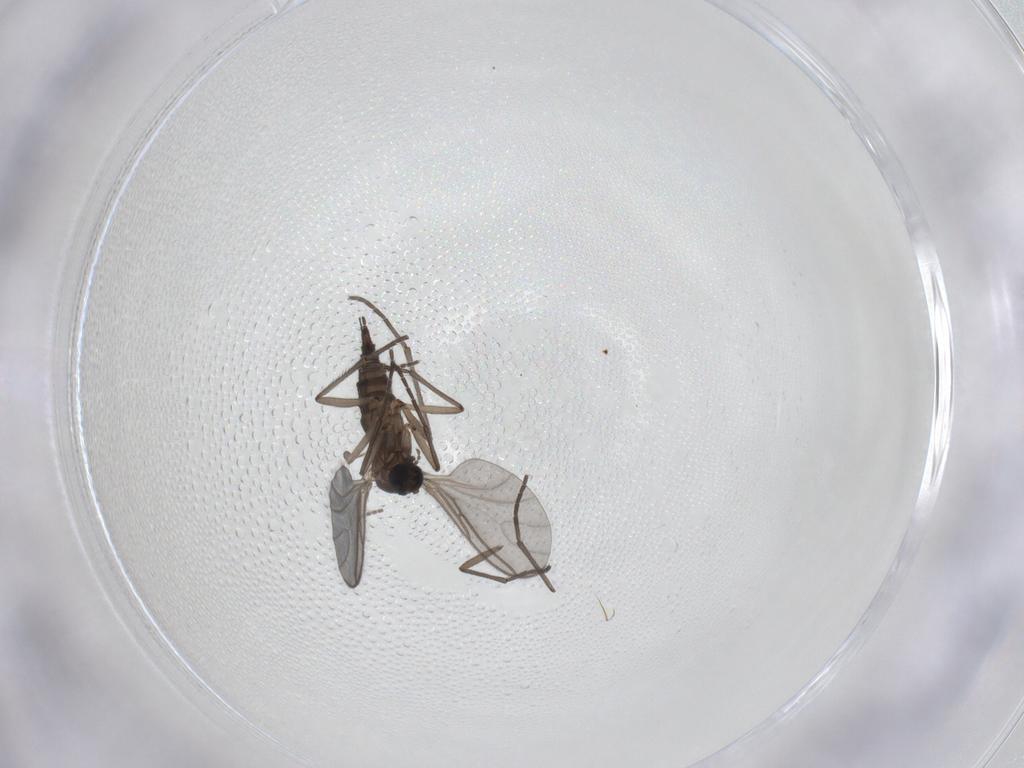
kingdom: Animalia
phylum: Arthropoda
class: Insecta
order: Diptera
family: Sciaridae
